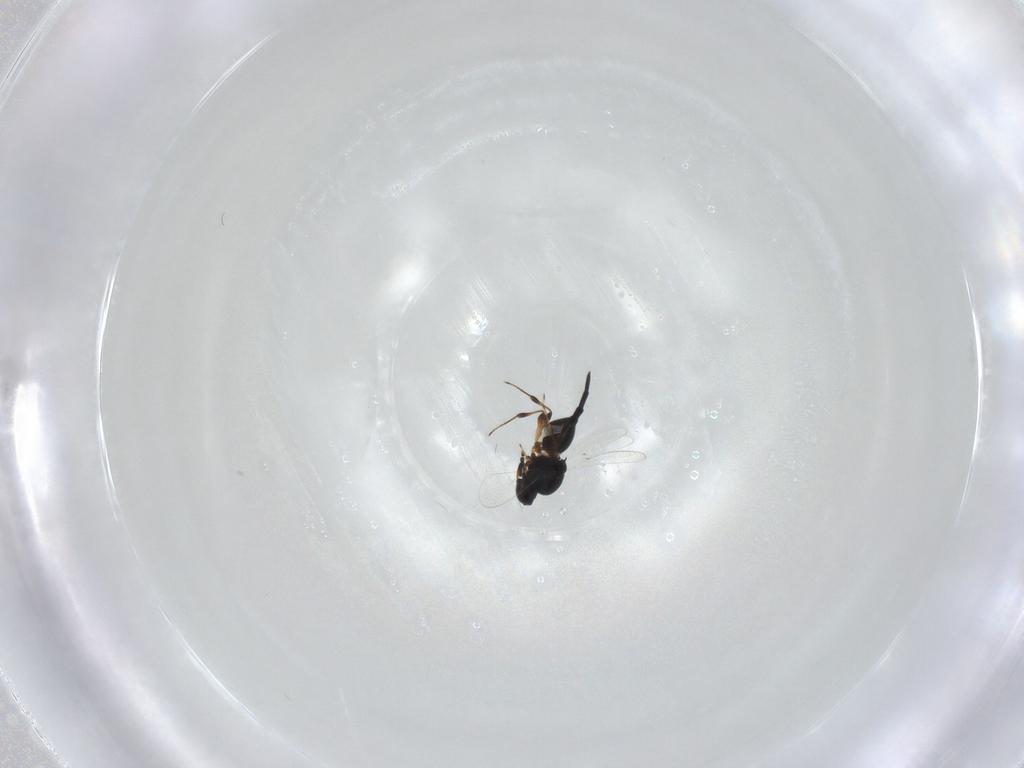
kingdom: Animalia
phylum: Arthropoda
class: Insecta
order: Hymenoptera
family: Platygastridae
